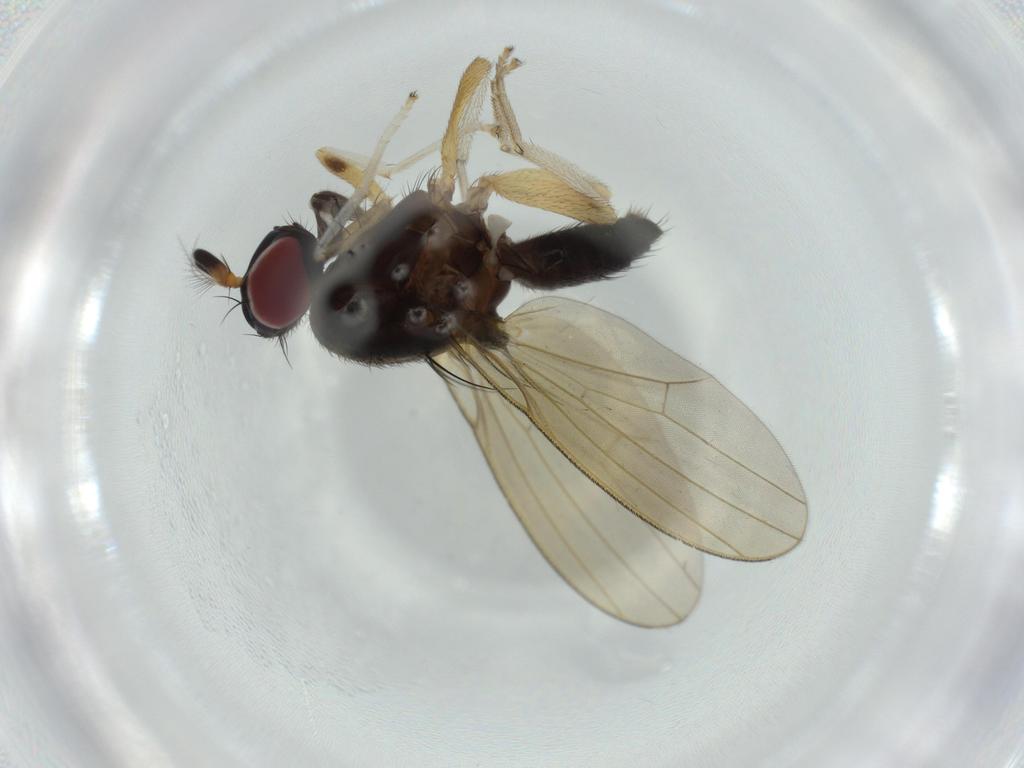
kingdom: Animalia
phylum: Arthropoda
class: Insecta
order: Diptera
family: Lauxaniidae
